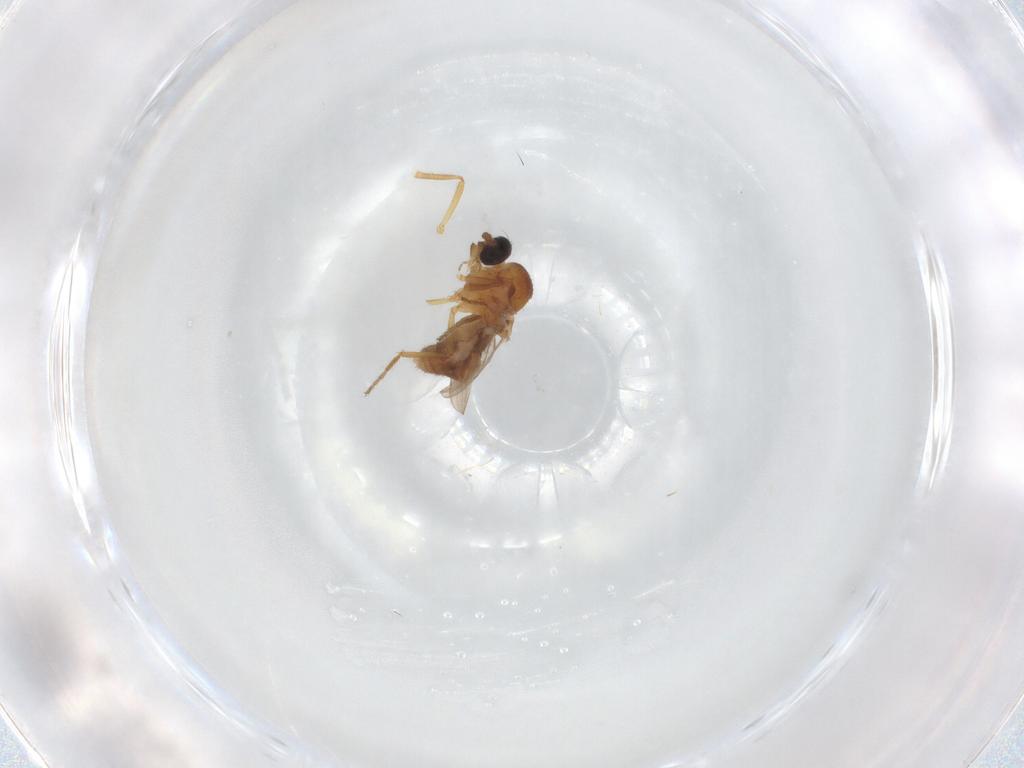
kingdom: Animalia
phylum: Arthropoda
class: Insecta
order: Diptera
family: Ceratopogonidae
